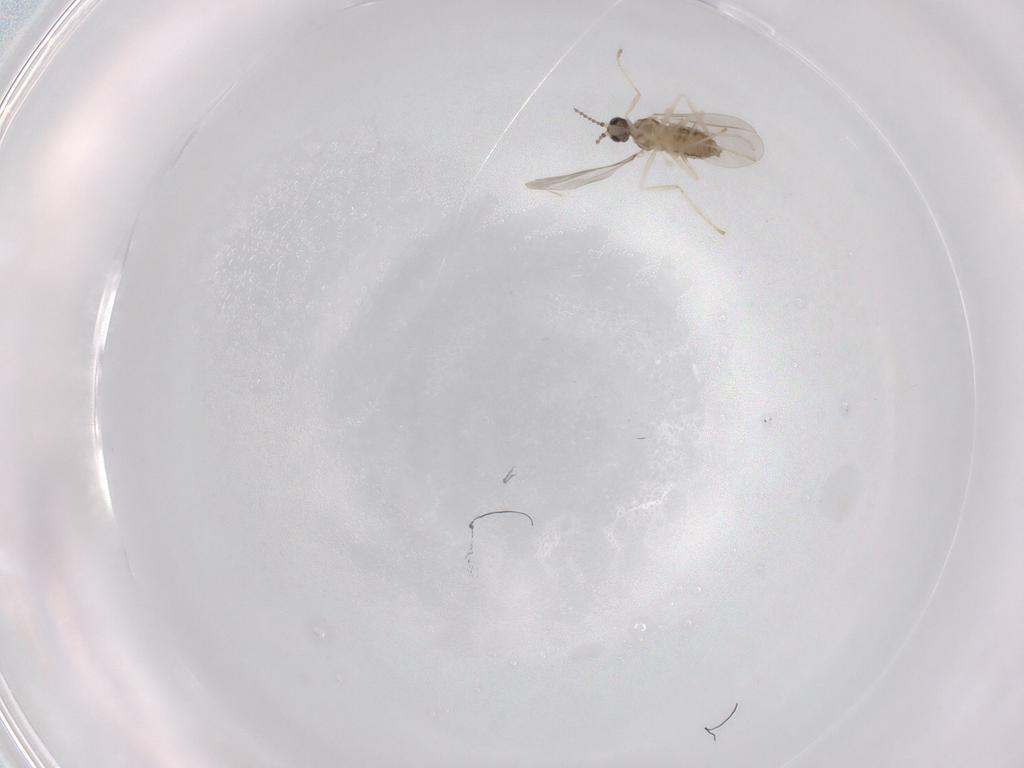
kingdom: Animalia
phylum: Arthropoda
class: Insecta
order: Diptera
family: Cecidomyiidae
